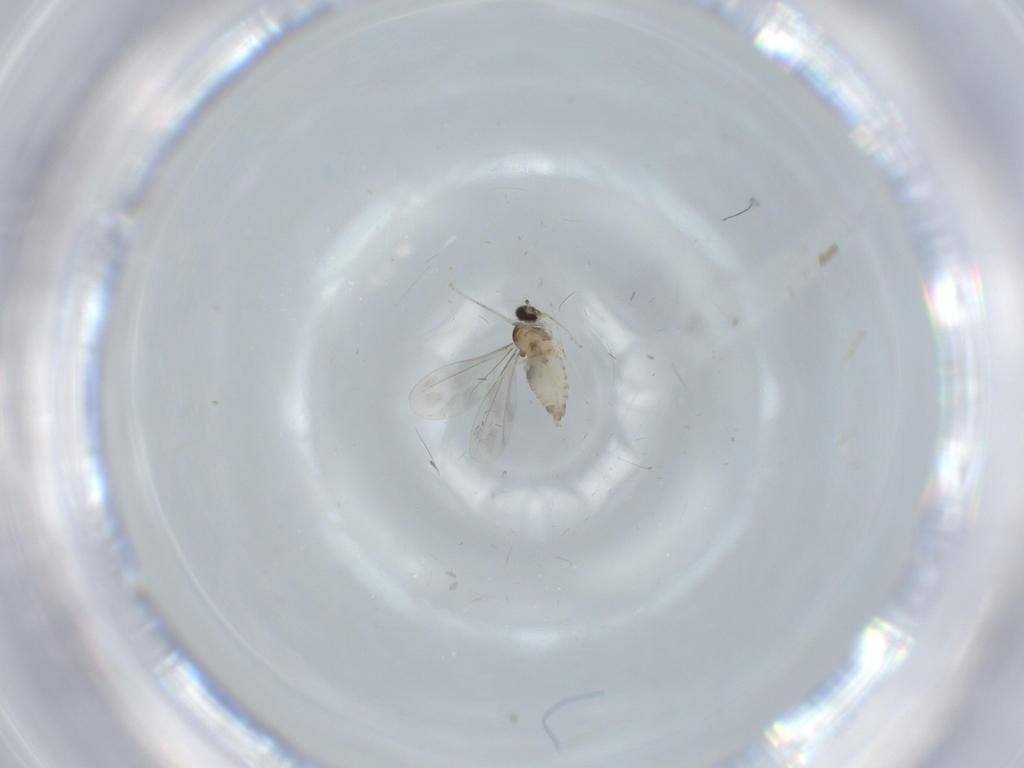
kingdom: Animalia
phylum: Arthropoda
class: Insecta
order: Diptera
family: Cecidomyiidae
